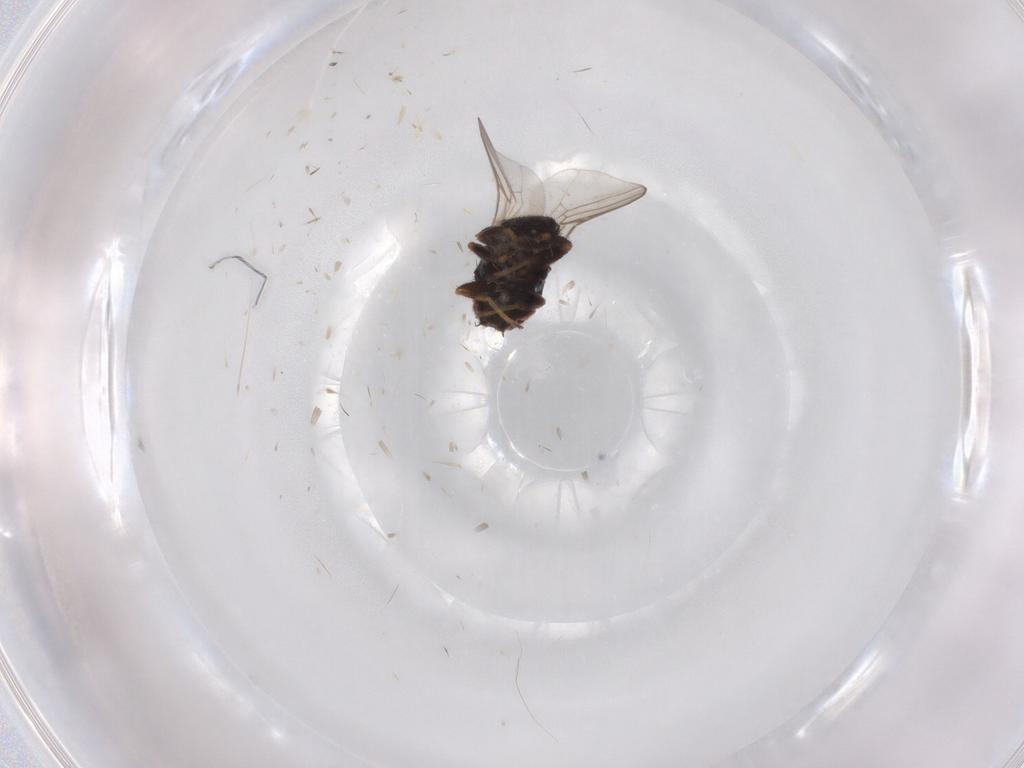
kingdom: Animalia
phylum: Arthropoda
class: Insecta
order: Diptera
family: Chloropidae
